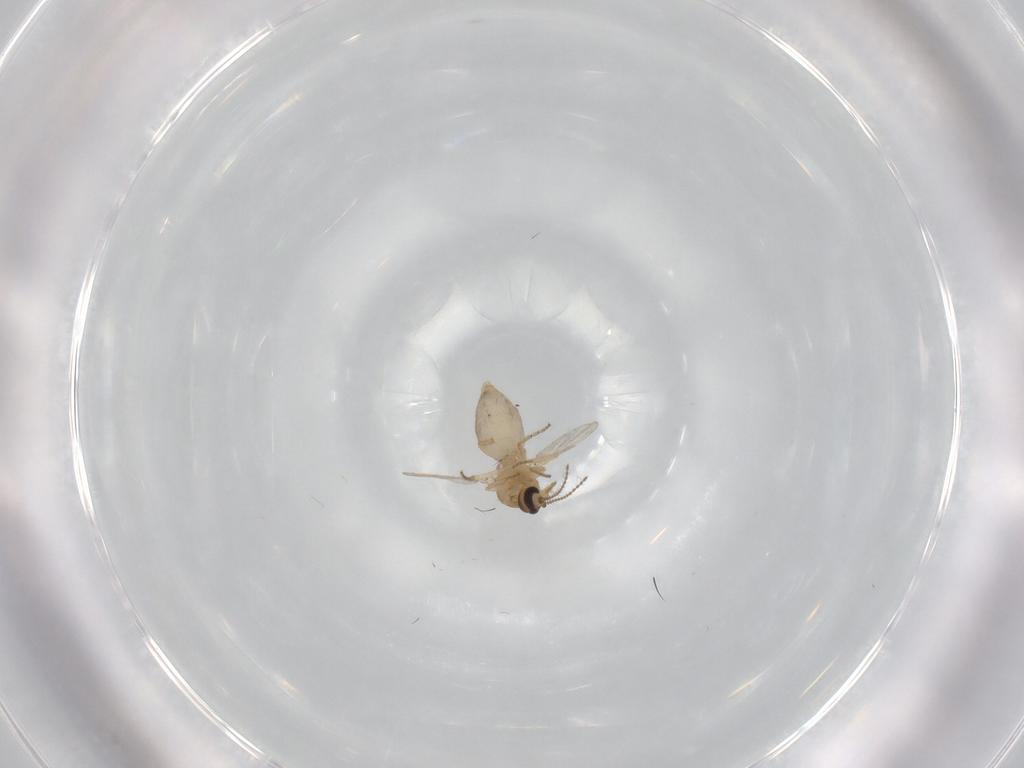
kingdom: Animalia
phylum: Arthropoda
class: Insecta
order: Diptera
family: Ceratopogonidae
